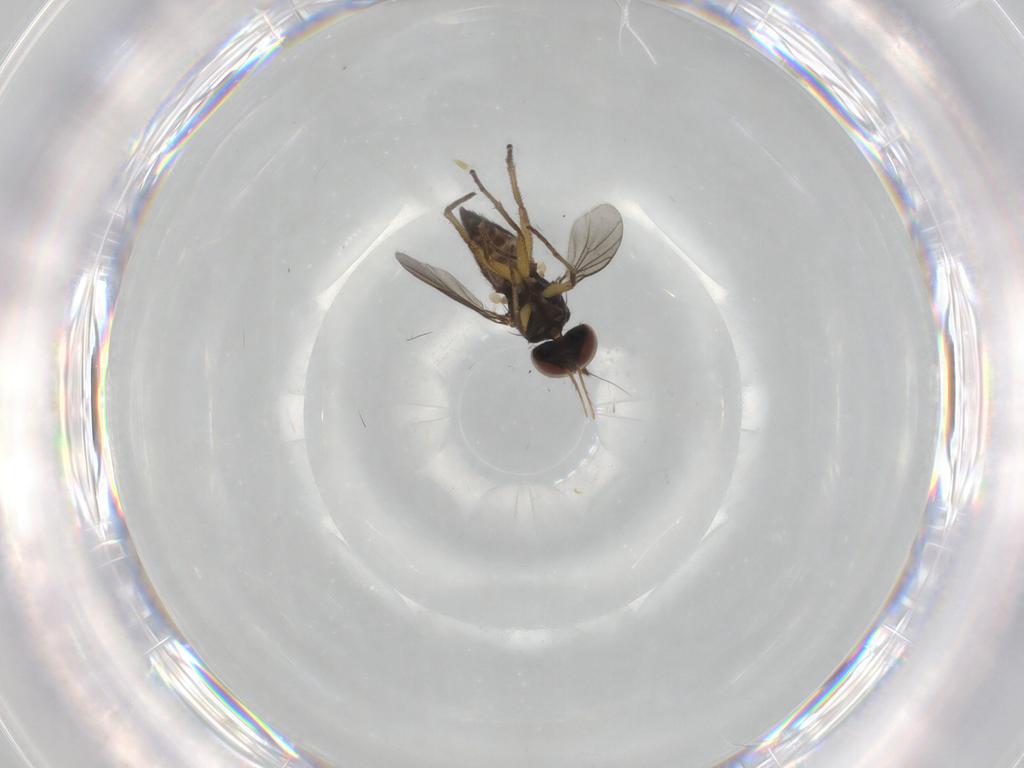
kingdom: Animalia
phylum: Arthropoda
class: Insecta
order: Diptera
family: Dolichopodidae
